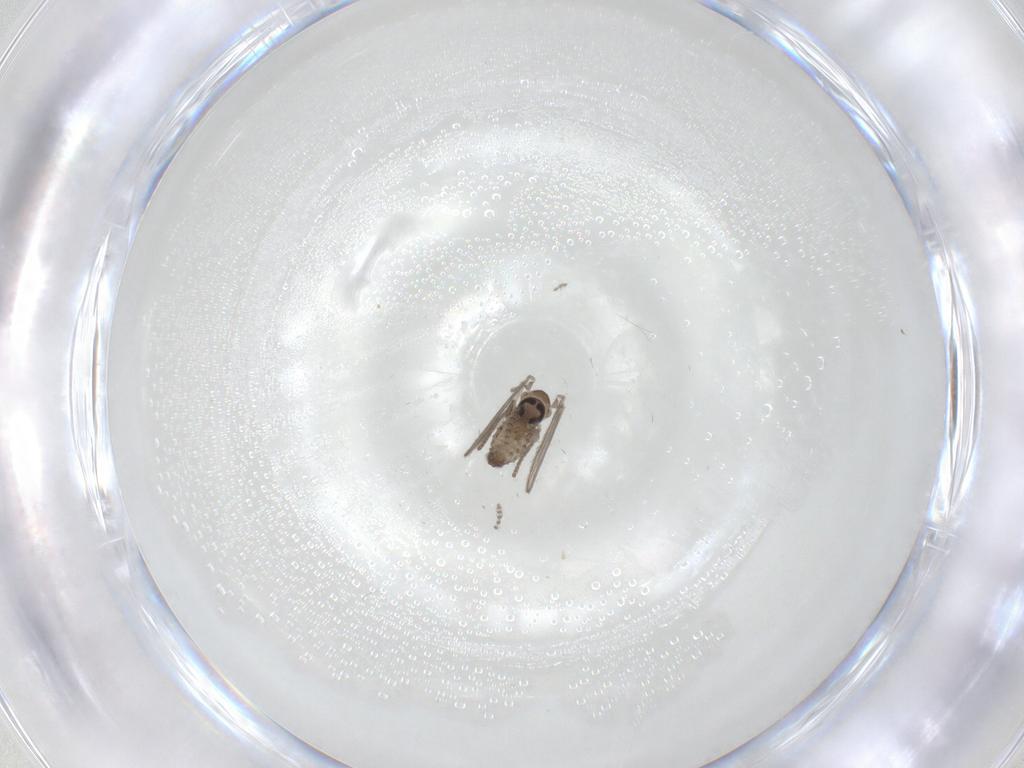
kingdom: Animalia
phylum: Arthropoda
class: Insecta
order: Diptera
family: Psychodidae
